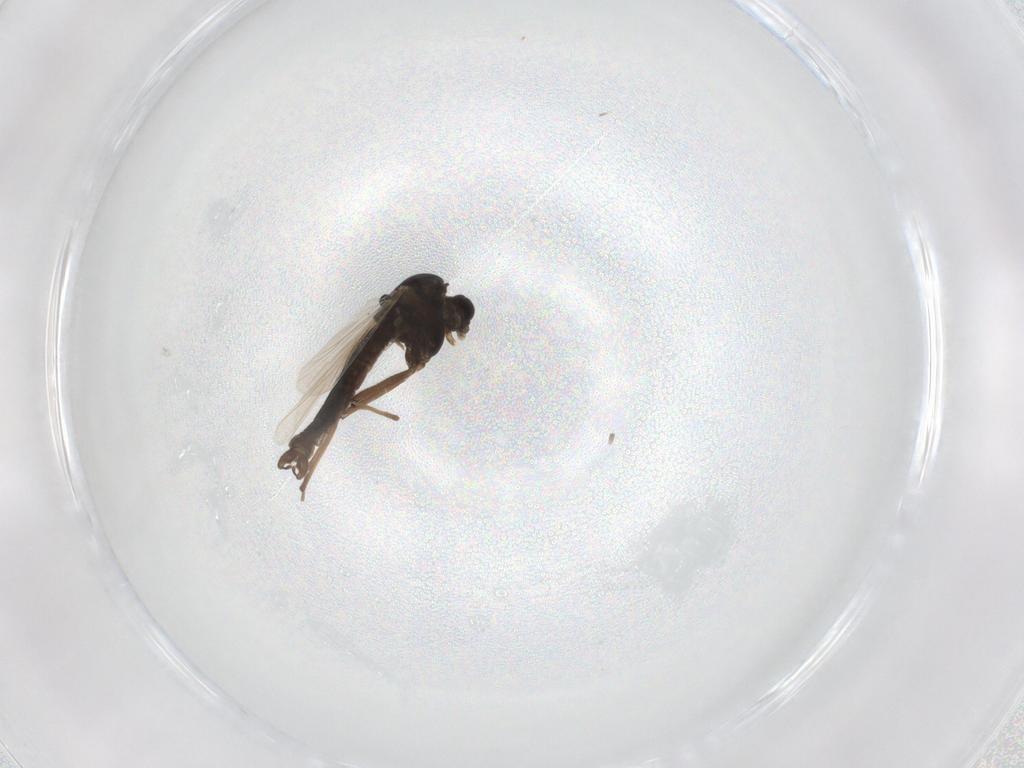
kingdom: Animalia
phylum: Arthropoda
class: Insecta
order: Diptera
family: Chironomidae
